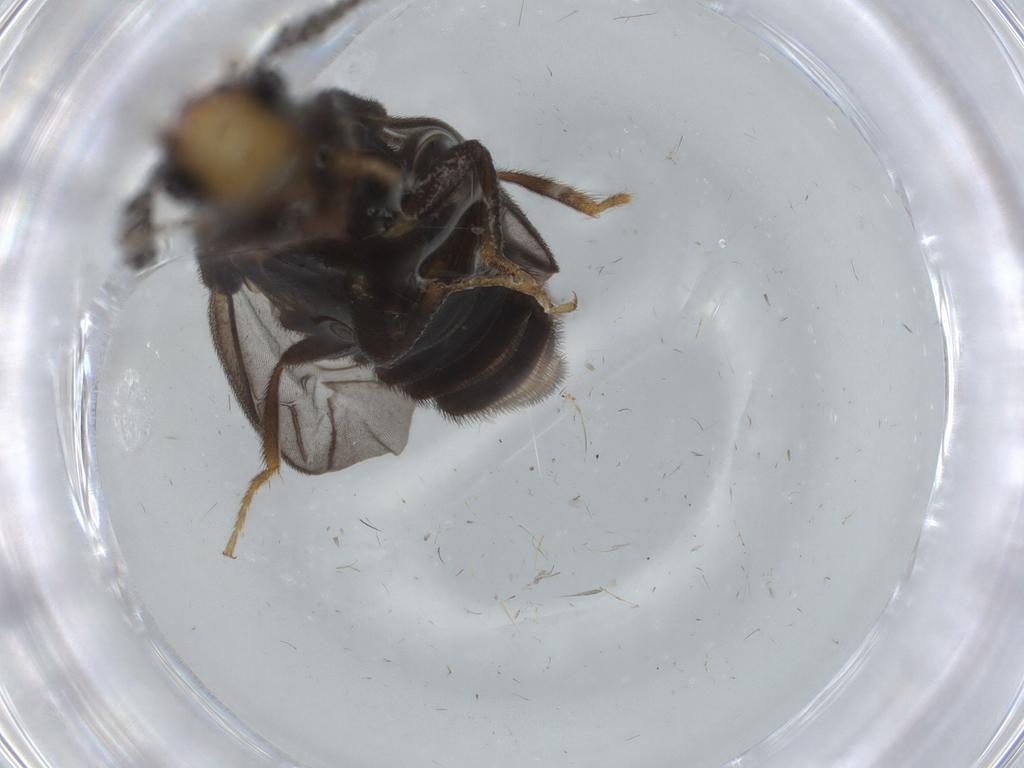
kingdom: Animalia
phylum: Arthropoda
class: Insecta
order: Coleoptera
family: Phengodidae
